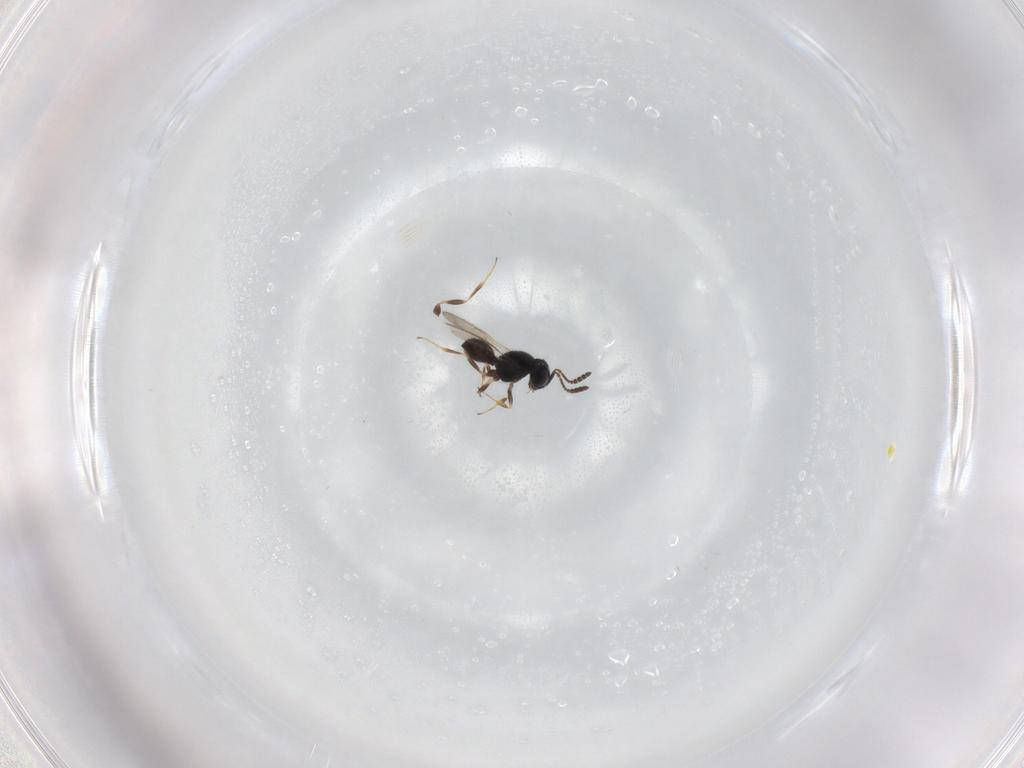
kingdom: Animalia
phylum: Arthropoda
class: Insecta
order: Hymenoptera
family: Scelionidae
